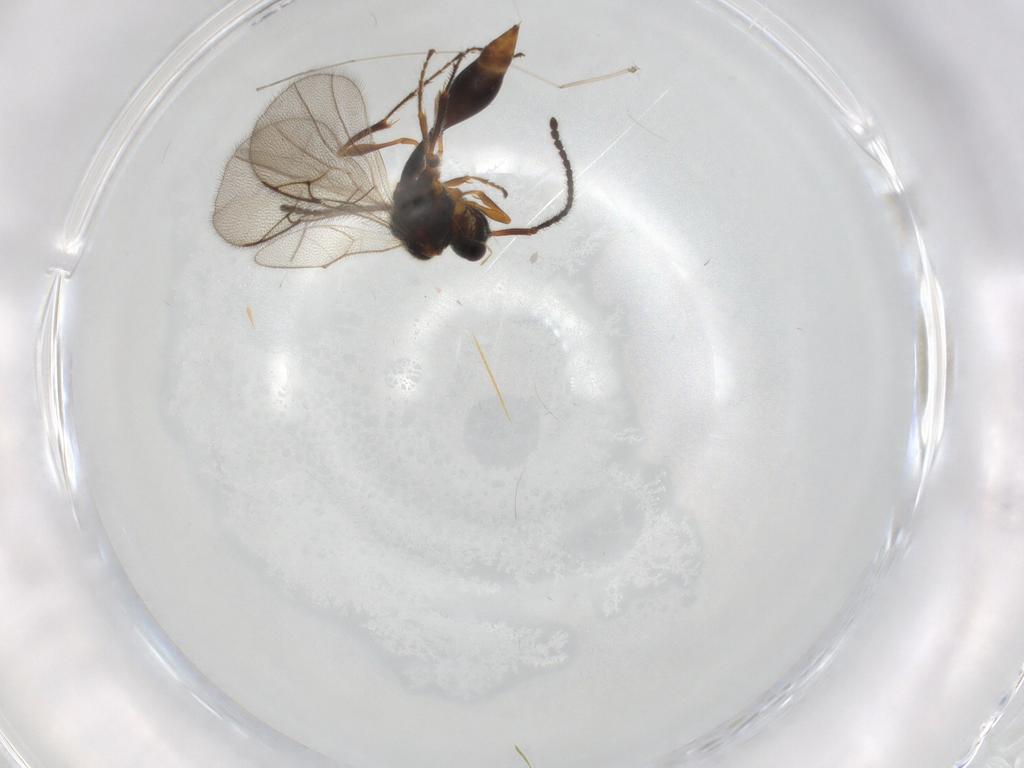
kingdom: Animalia
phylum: Arthropoda
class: Insecta
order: Hymenoptera
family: Diapriidae
